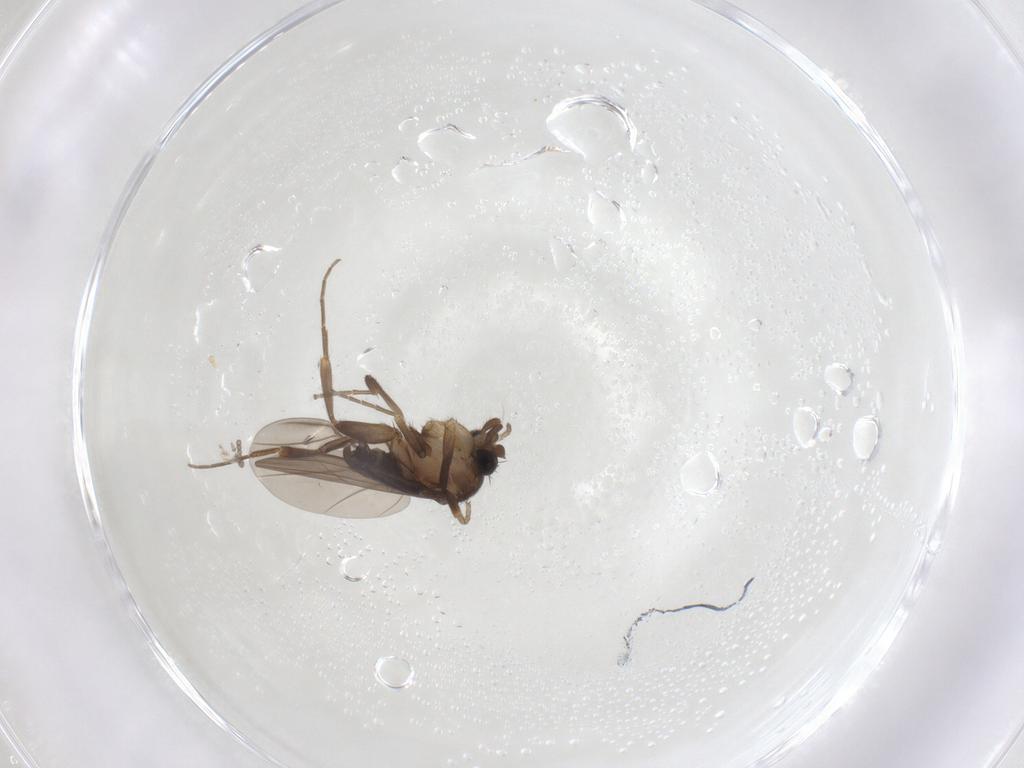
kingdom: Animalia
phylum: Arthropoda
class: Insecta
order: Diptera
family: Phoridae
